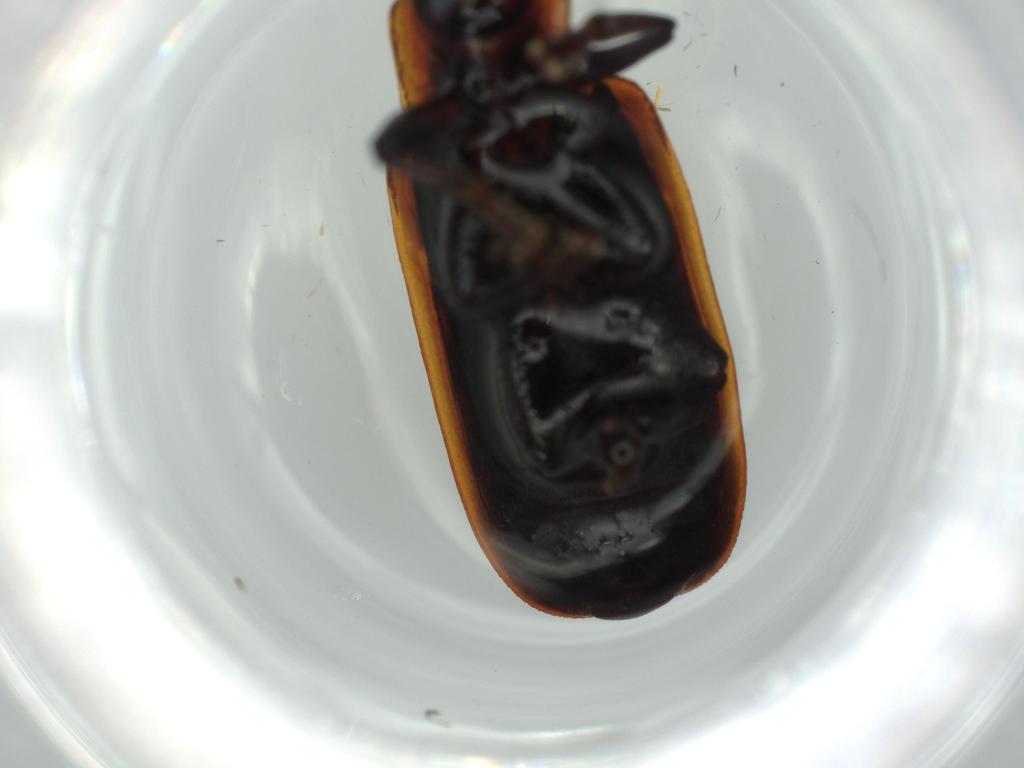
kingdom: Animalia
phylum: Arthropoda
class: Insecta
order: Coleoptera
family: Chrysomelidae
